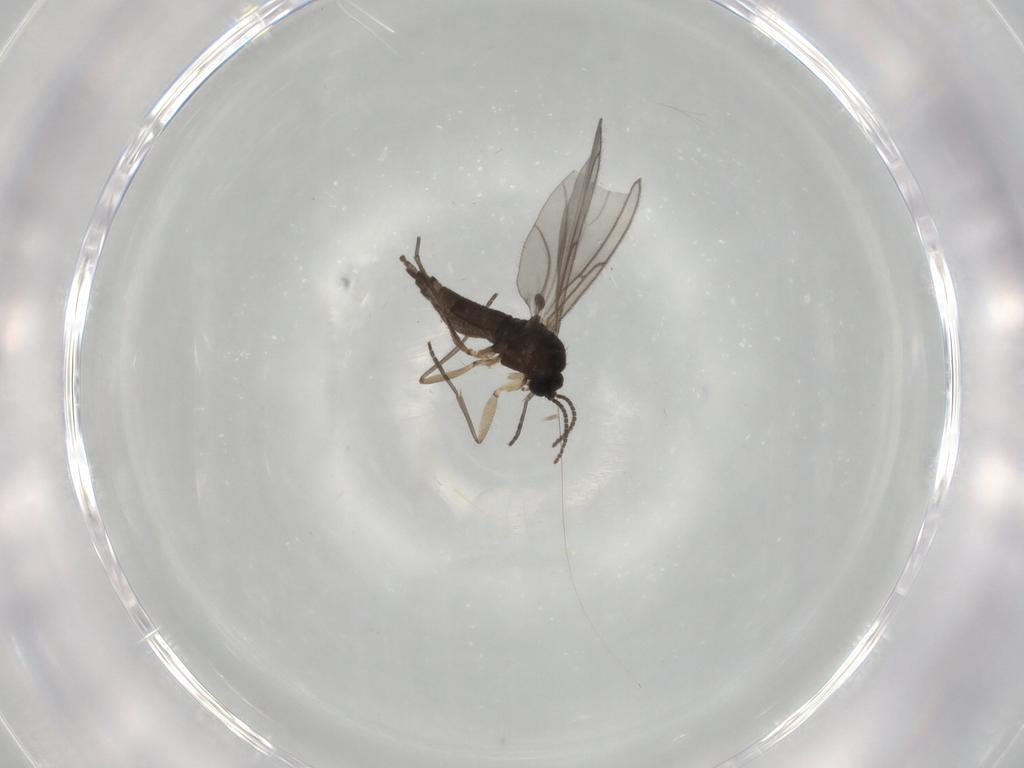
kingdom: Animalia
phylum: Arthropoda
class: Insecta
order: Diptera
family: Sciaridae
